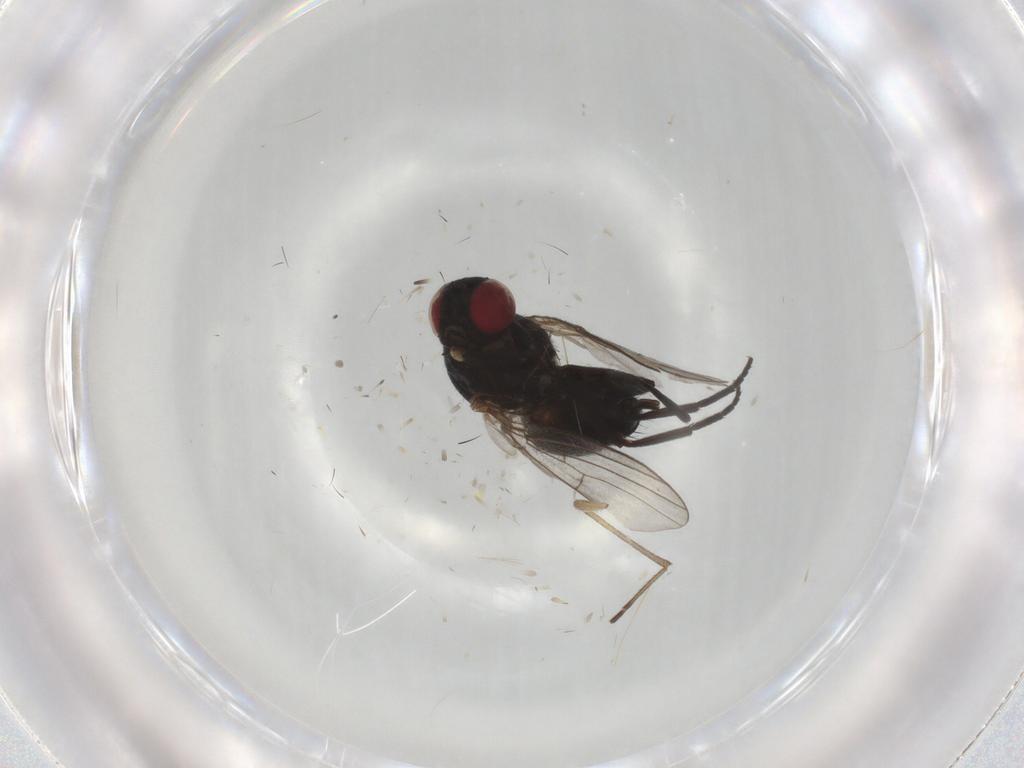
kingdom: Animalia
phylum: Arthropoda
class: Insecta
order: Diptera
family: Agromyzidae
